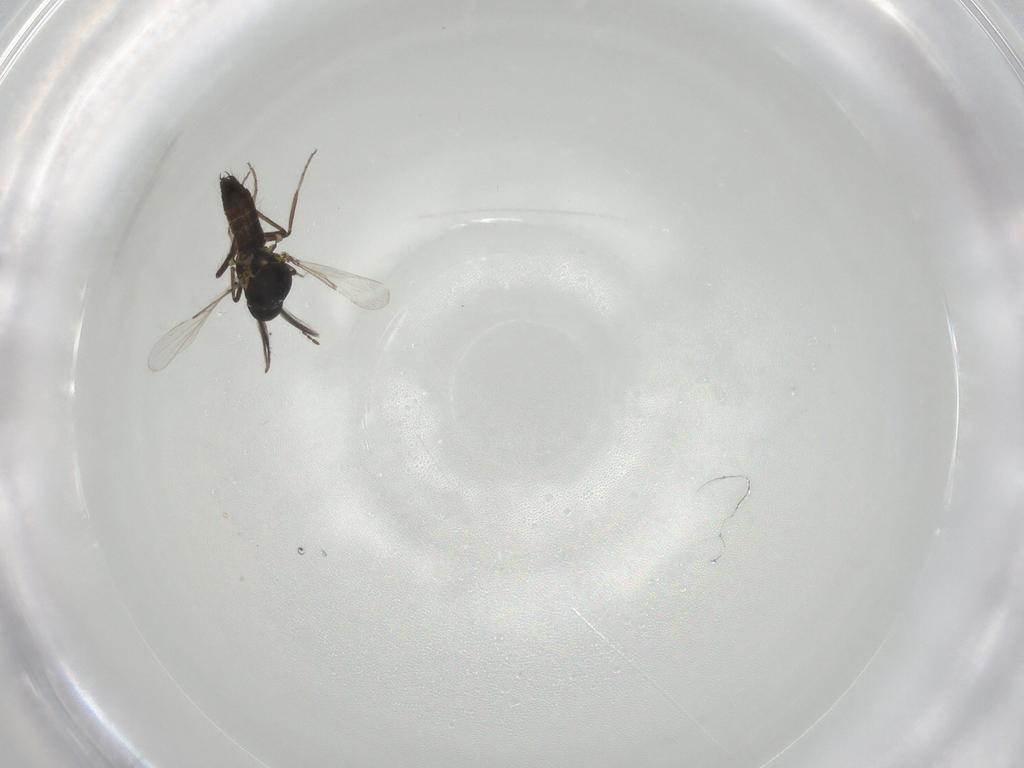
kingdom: Animalia
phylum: Arthropoda
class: Insecta
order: Diptera
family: Ceratopogonidae
